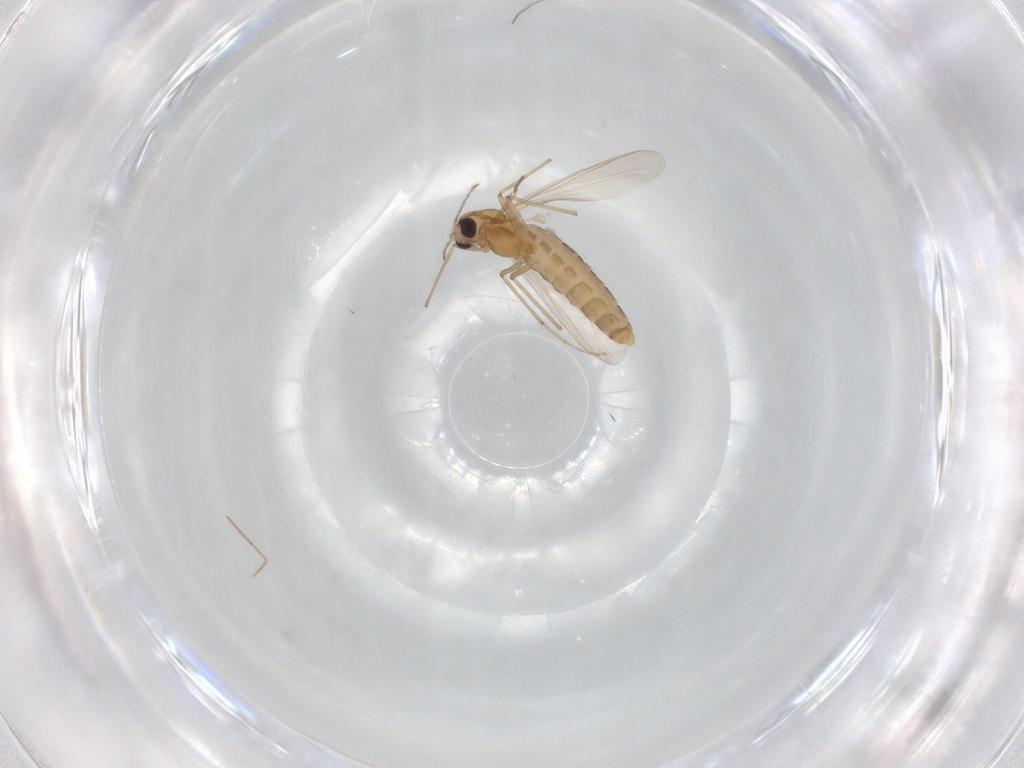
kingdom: Animalia
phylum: Arthropoda
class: Insecta
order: Diptera
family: Chironomidae
